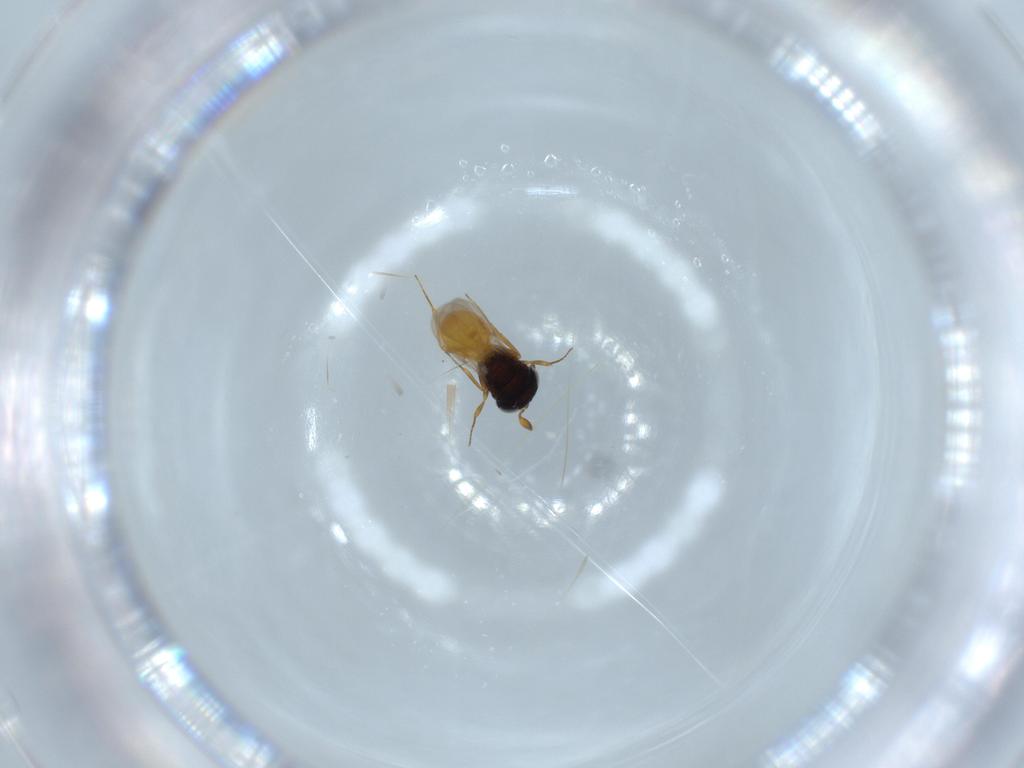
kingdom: Animalia
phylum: Arthropoda
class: Insecta
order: Hymenoptera
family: Scelionidae
